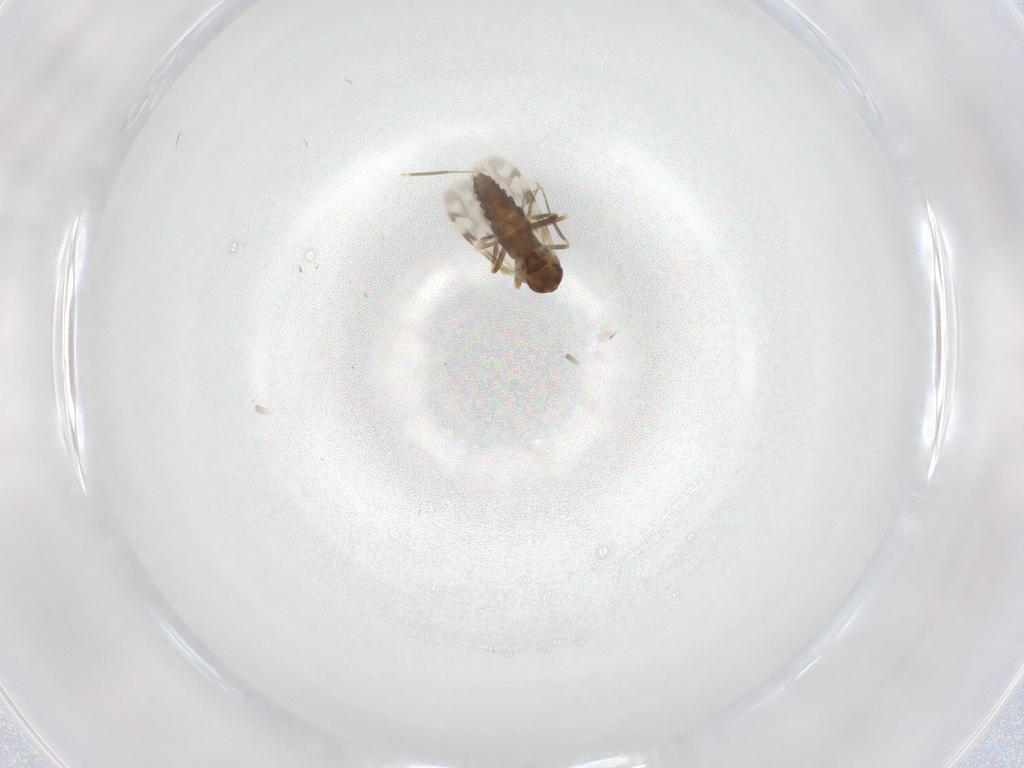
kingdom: Animalia
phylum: Arthropoda
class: Insecta
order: Diptera
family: Ceratopogonidae
